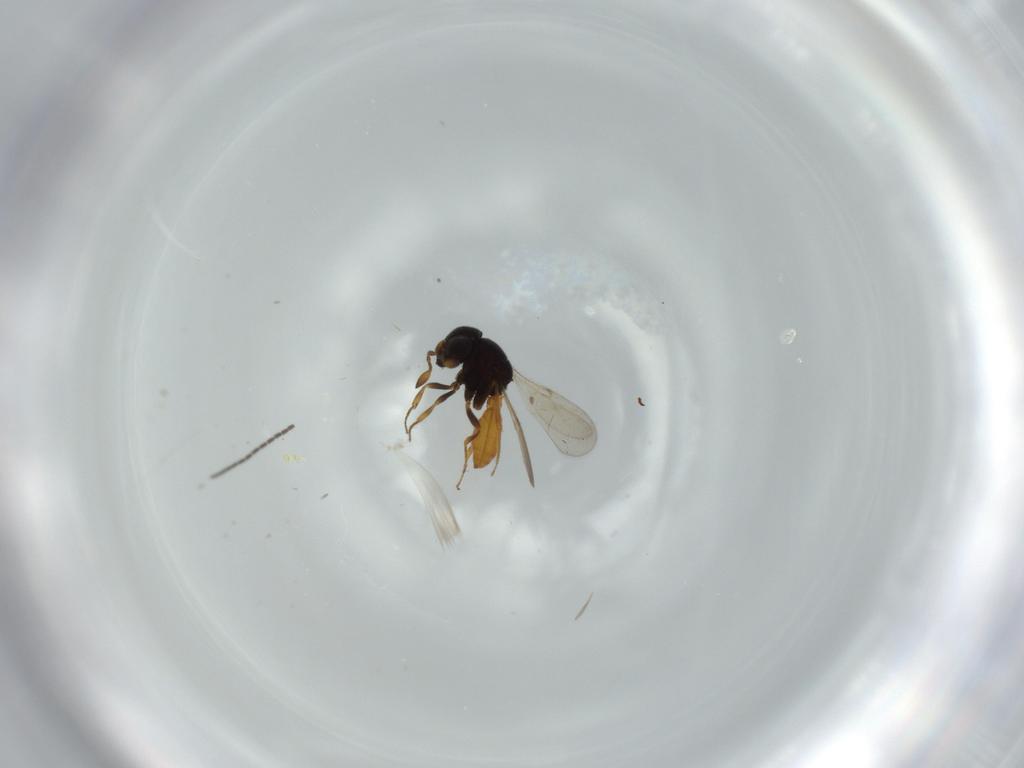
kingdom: Animalia
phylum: Arthropoda
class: Insecta
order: Hymenoptera
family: Scelionidae
